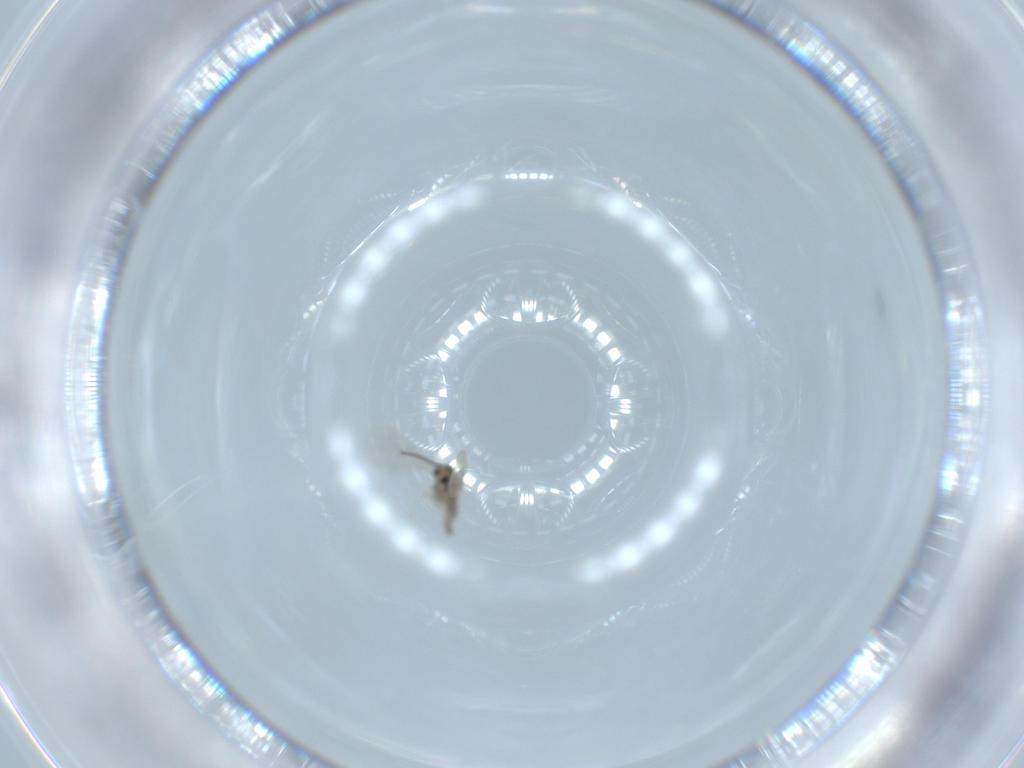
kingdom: Animalia
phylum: Arthropoda
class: Insecta
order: Diptera
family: Cecidomyiidae
